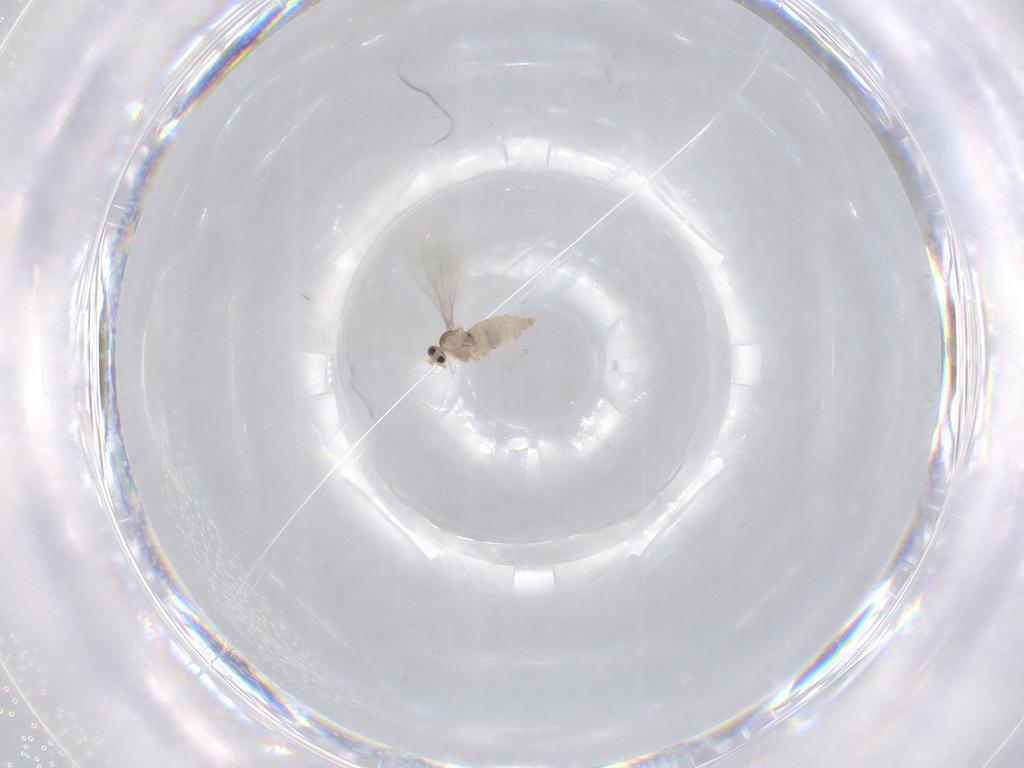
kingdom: Animalia
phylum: Arthropoda
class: Insecta
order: Diptera
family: Cecidomyiidae
